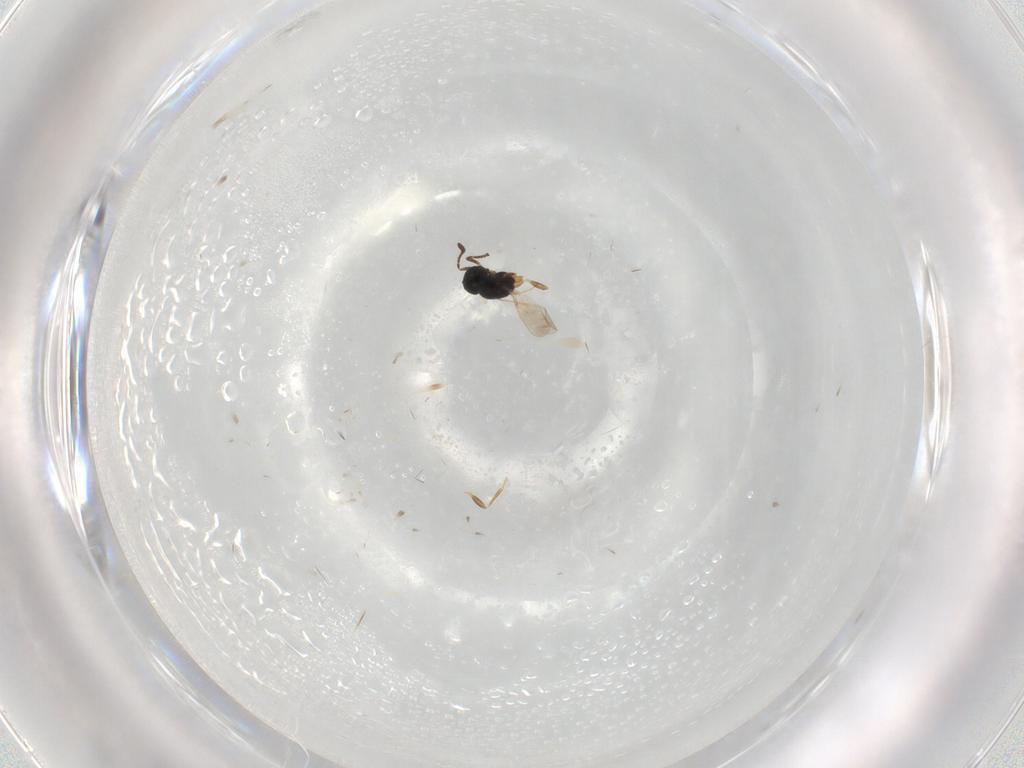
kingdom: Animalia
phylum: Arthropoda
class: Insecta
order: Hymenoptera
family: Scelionidae
